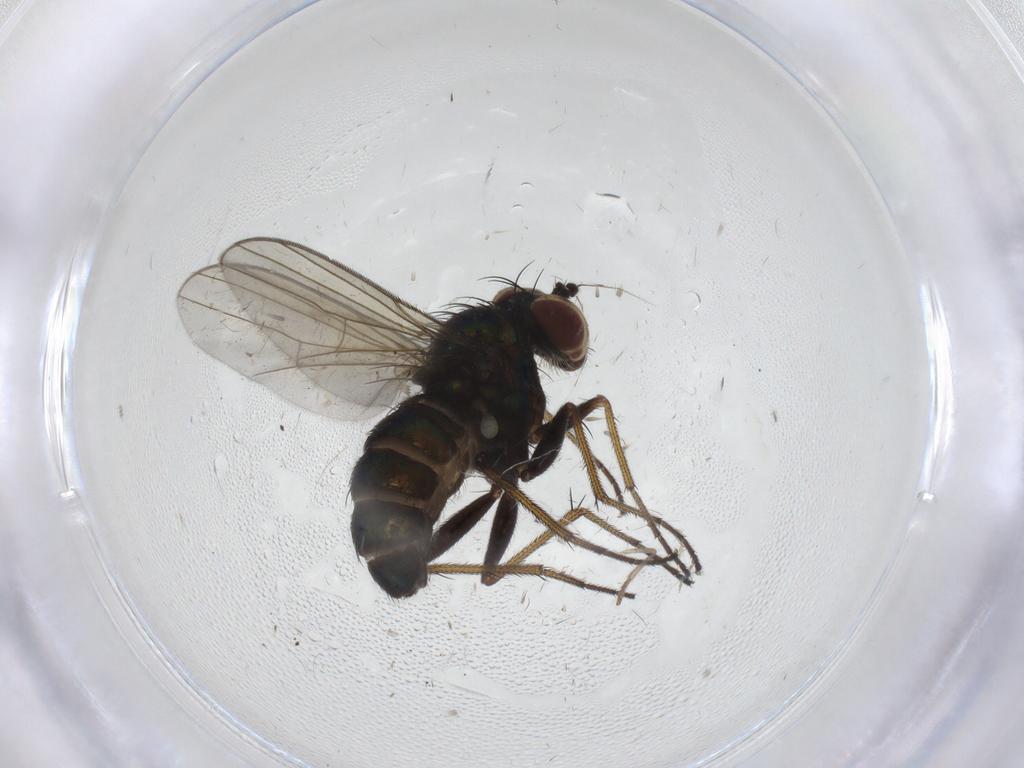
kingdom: Animalia
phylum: Arthropoda
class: Insecta
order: Diptera
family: Dolichopodidae
